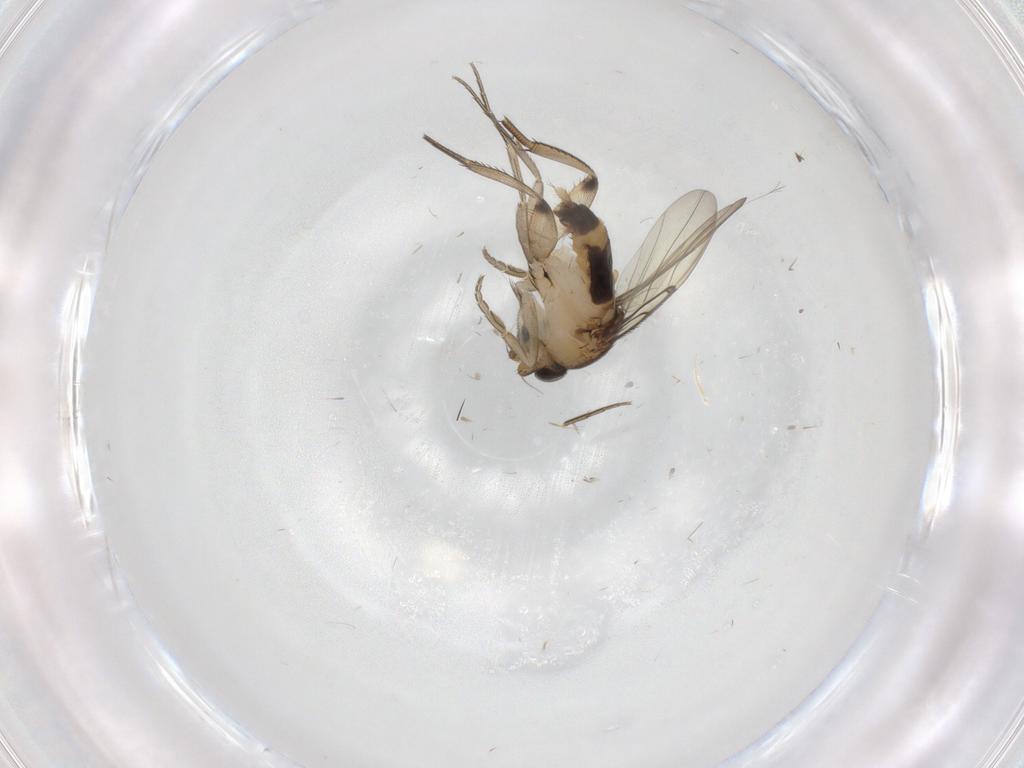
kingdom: Animalia
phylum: Arthropoda
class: Insecta
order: Diptera
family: Phoridae
